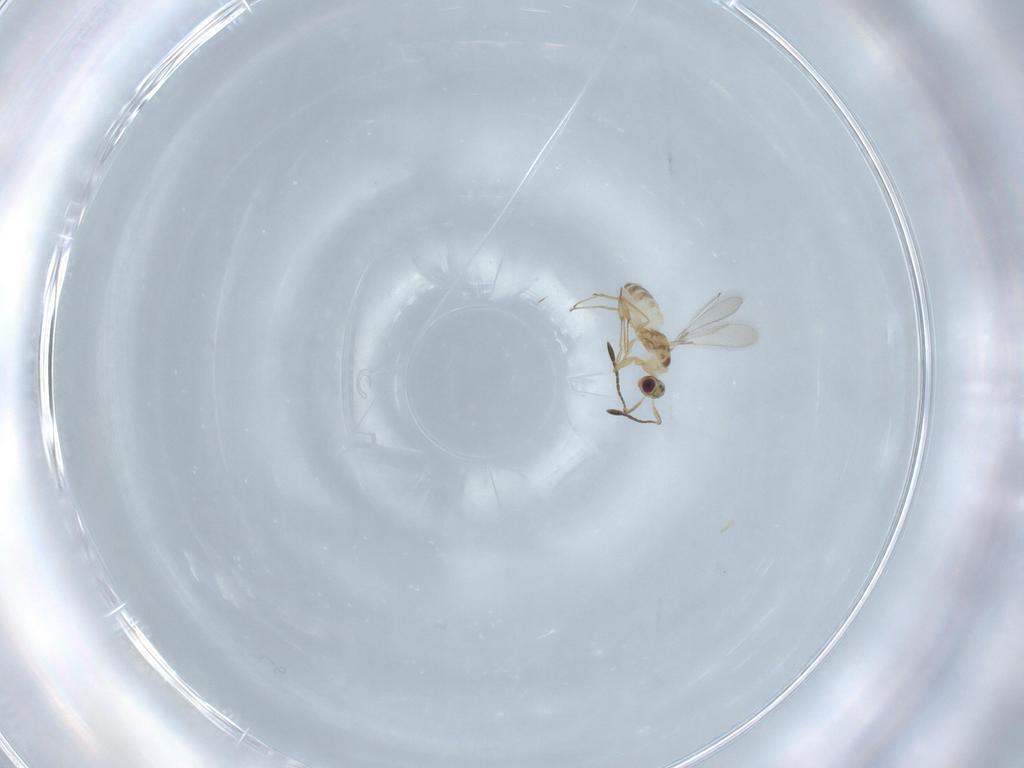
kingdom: Animalia
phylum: Arthropoda
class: Insecta
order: Hymenoptera
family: Mymaridae
